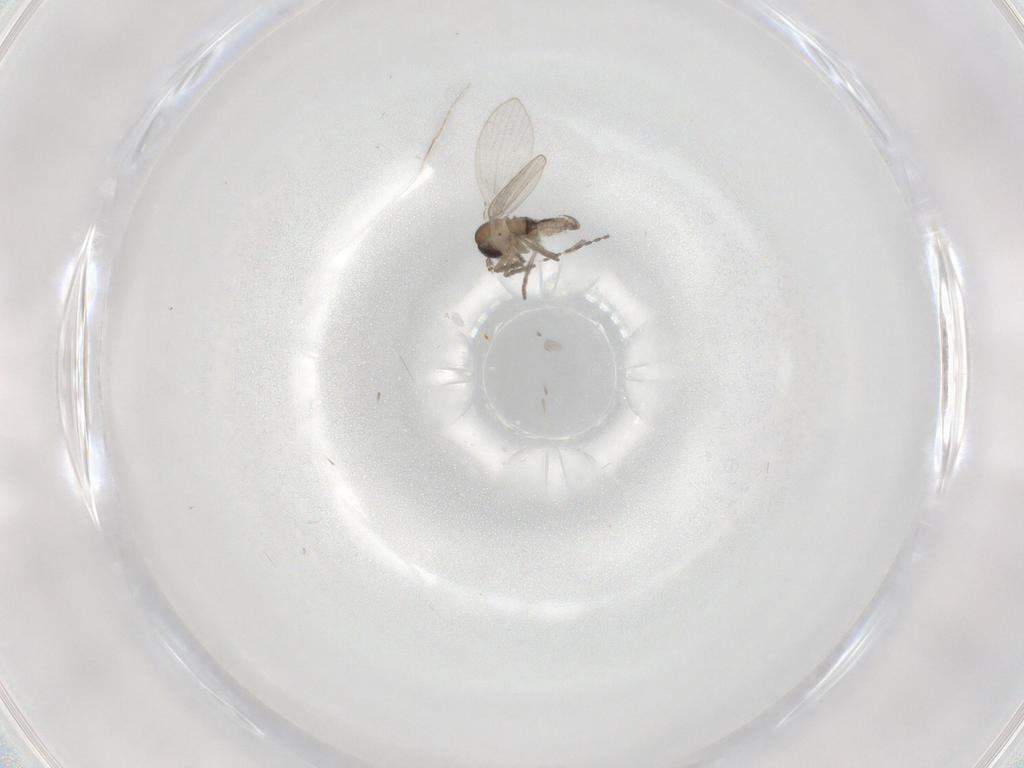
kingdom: Animalia
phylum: Arthropoda
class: Insecta
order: Diptera
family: Psychodidae
